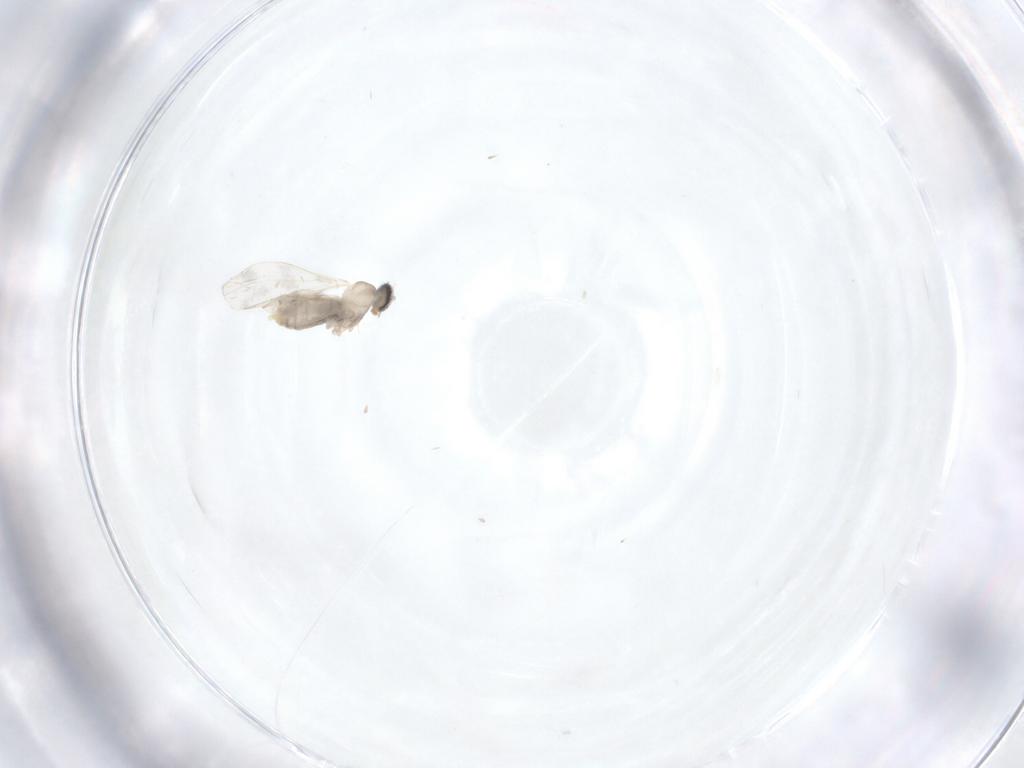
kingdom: Animalia
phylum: Arthropoda
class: Insecta
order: Diptera
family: Cecidomyiidae
